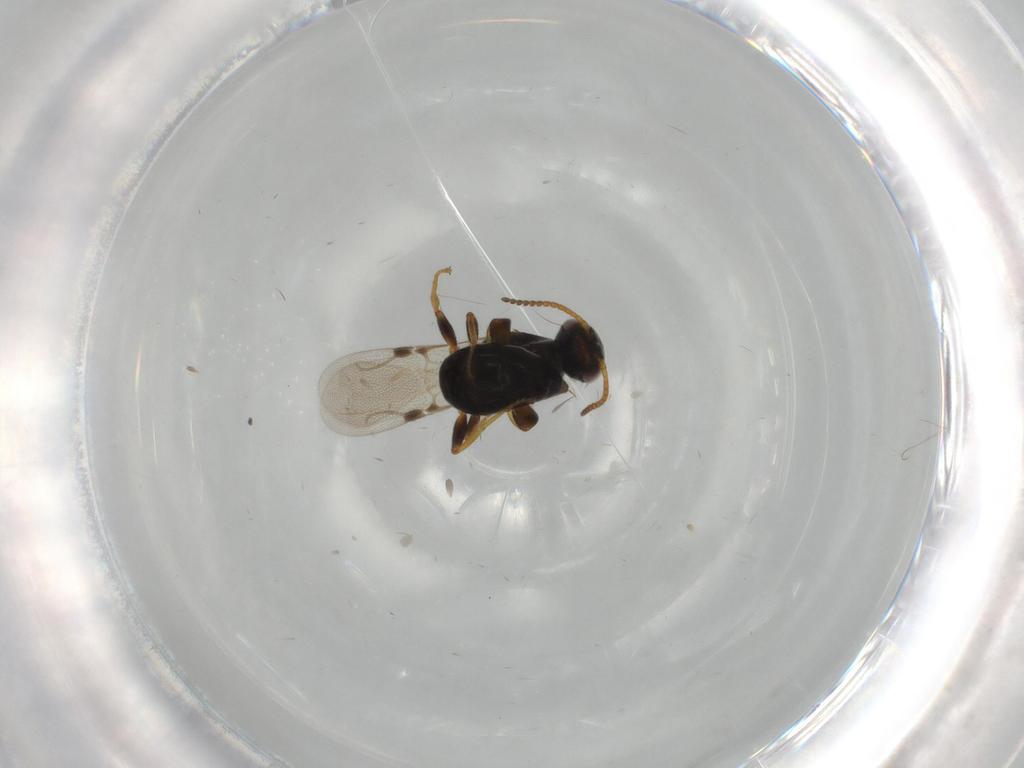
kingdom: Animalia
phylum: Arthropoda
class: Insecta
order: Hymenoptera
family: Bethylidae
